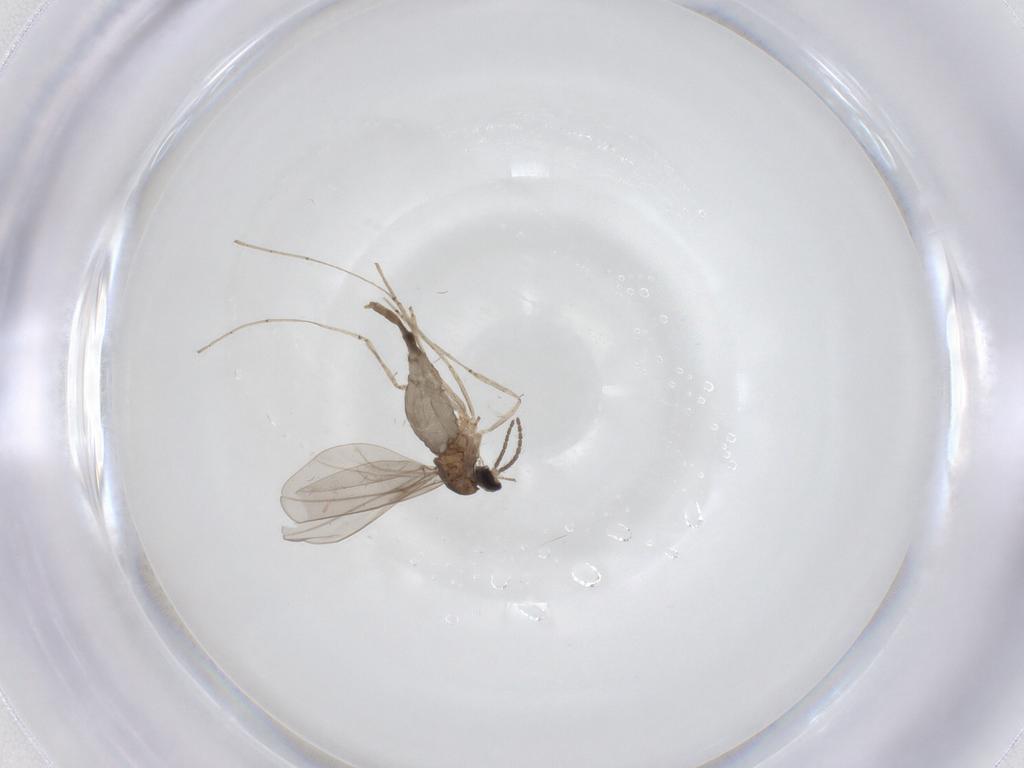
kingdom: Animalia
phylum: Arthropoda
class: Insecta
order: Diptera
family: Cecidomyiidae
